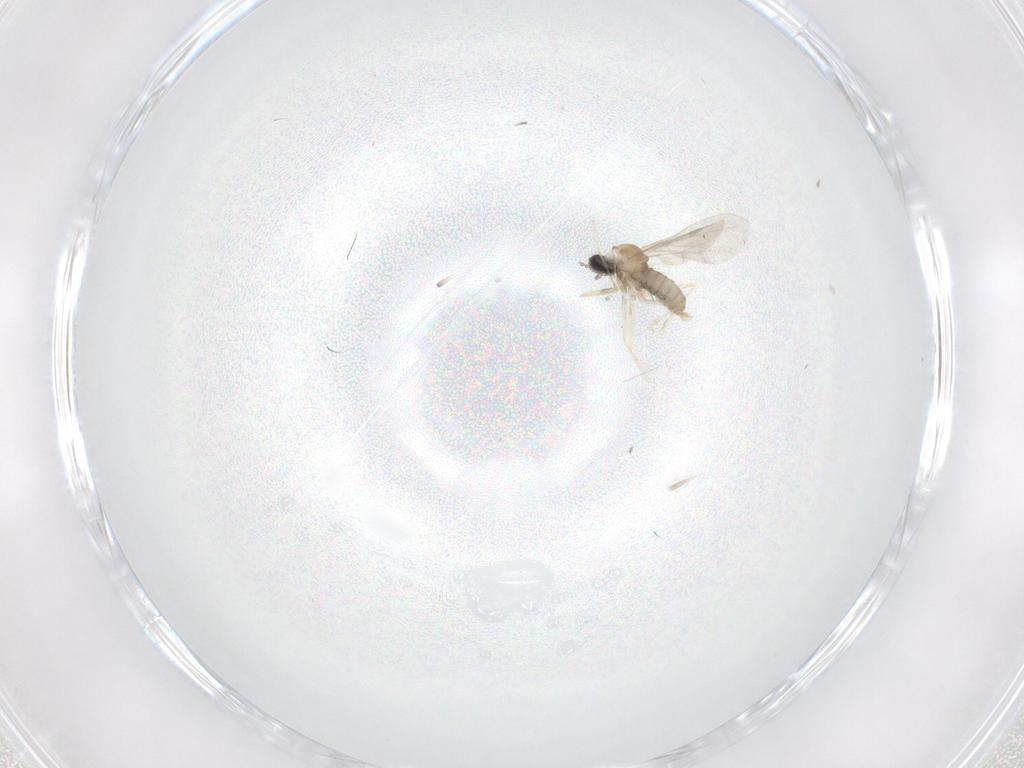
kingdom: Animalia
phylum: Arthropoda
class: Insecta
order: Diptera
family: Cecidomyiidae
